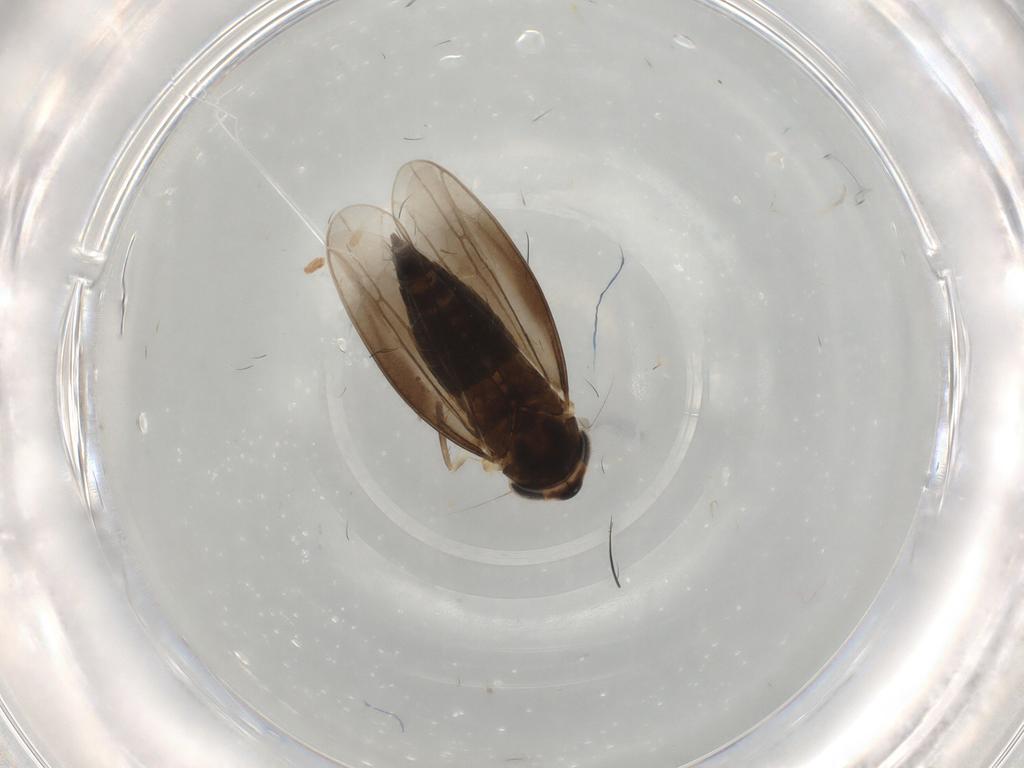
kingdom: Animalia
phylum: Arthropoda
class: Insecta
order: Hemiptera
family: Cicadellidae
